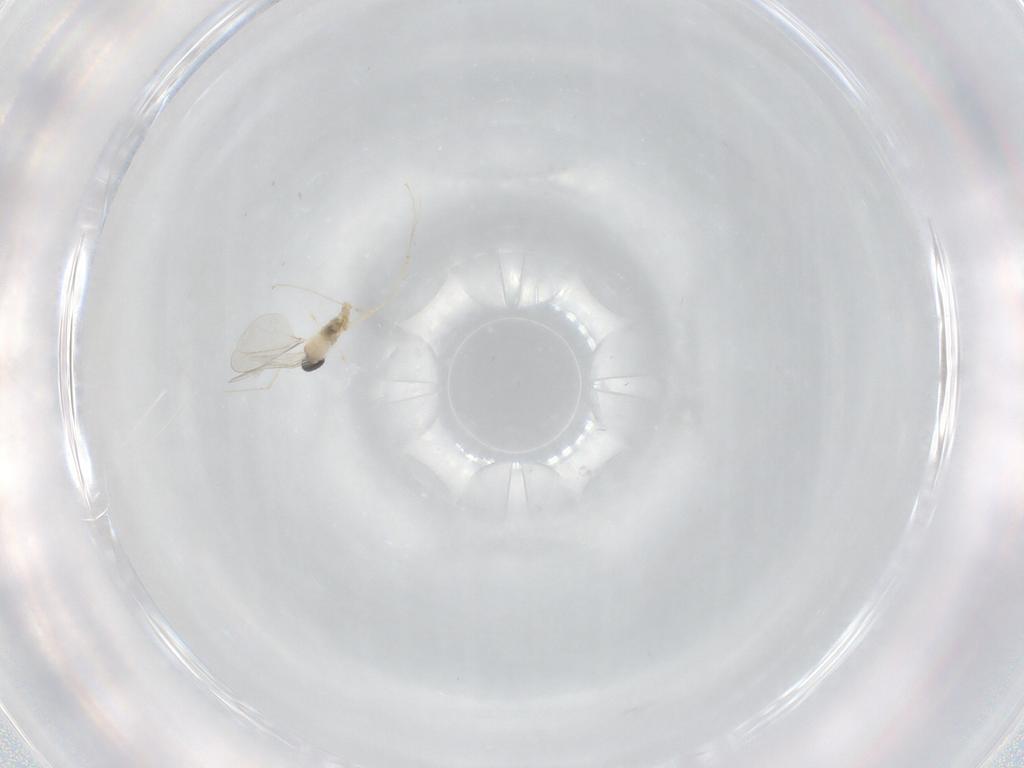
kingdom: Animalia
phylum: Arthropoda
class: Insecta
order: Diptera
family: Cecidomyiidae
